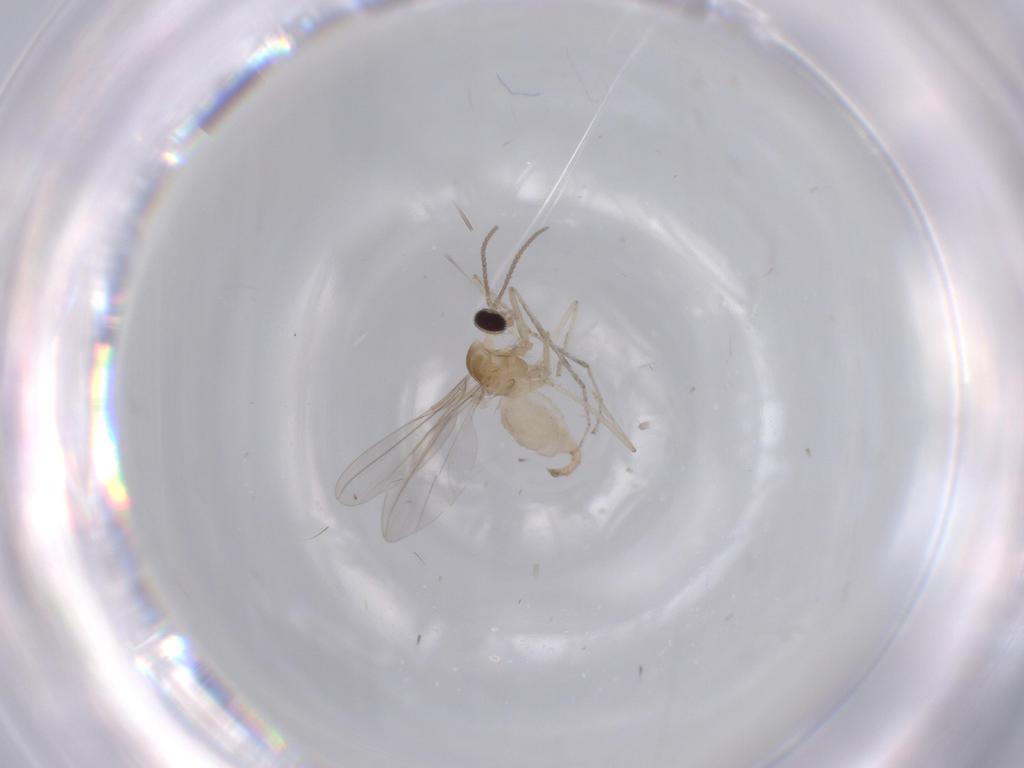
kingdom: Animalia
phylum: Arthropoda
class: Insecta
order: Diptera
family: Cecidomyiidae
